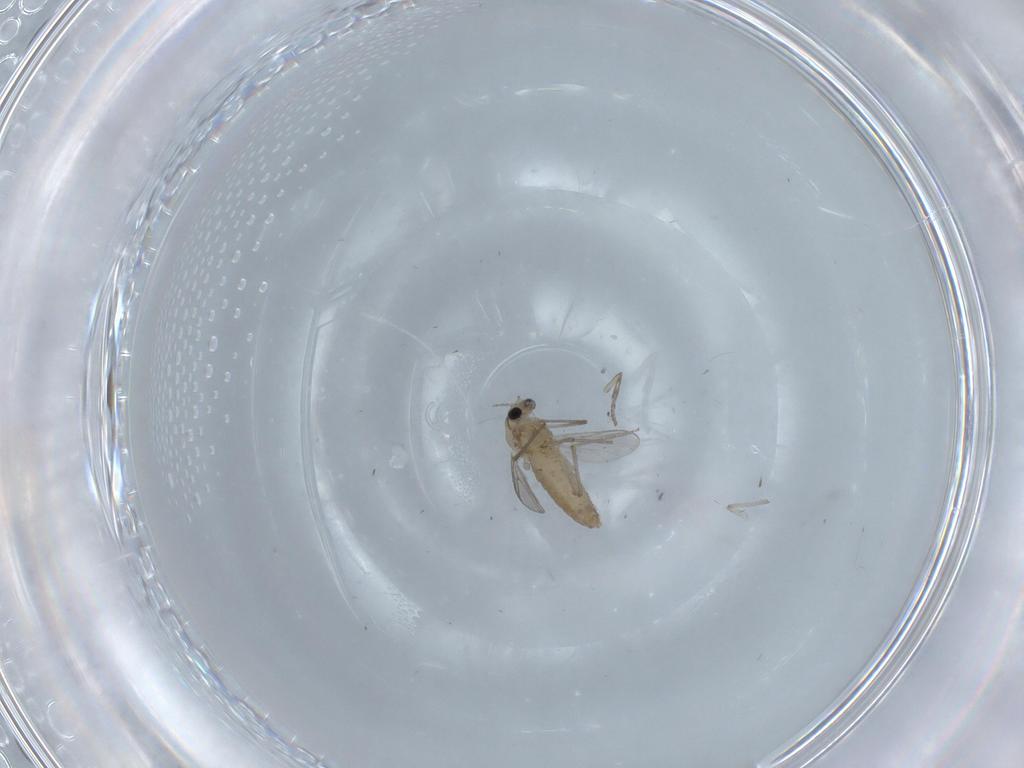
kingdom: Animalia
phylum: Arthropoda
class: Insecta
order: Diptera
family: Chironomidae
